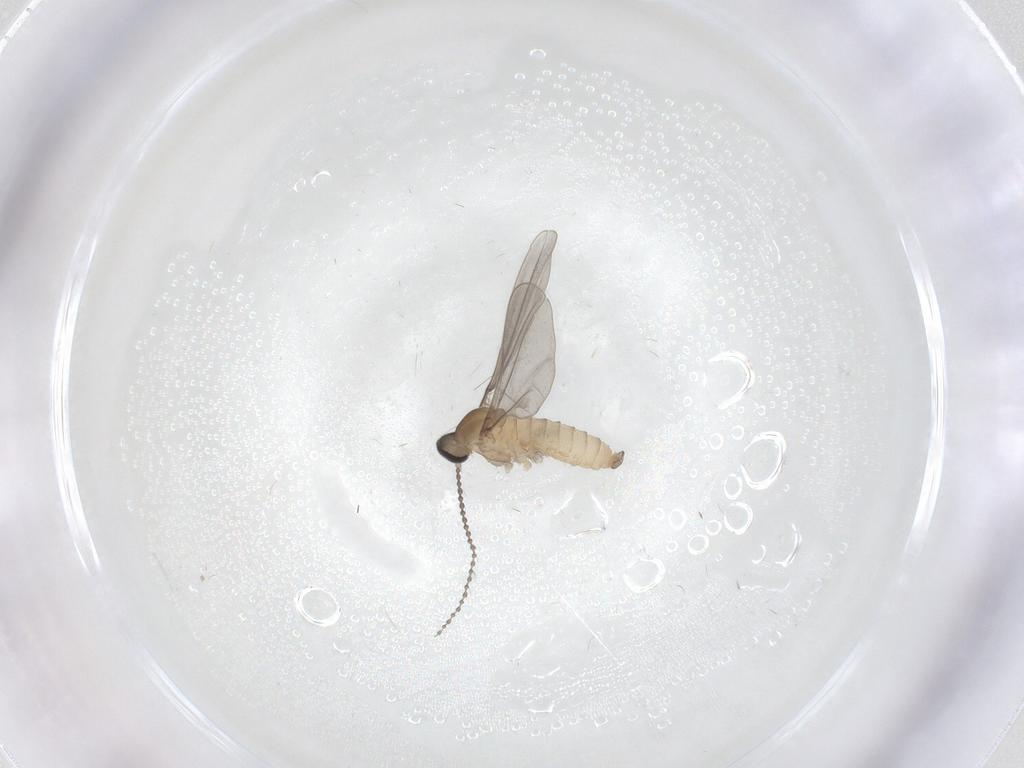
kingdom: Animalia
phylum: Arthropoda
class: Insecta
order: Diptera
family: Cecidomyiidae
